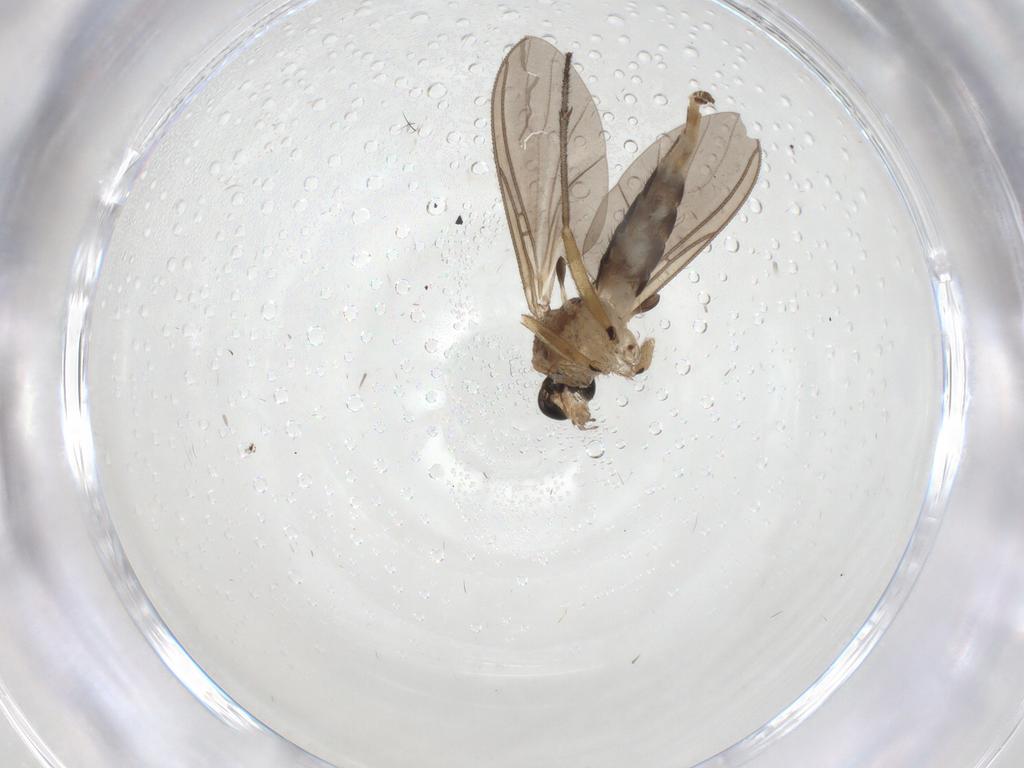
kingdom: Animalia
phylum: Arthropoda
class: Insecta
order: Diptera
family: Sciaridae
